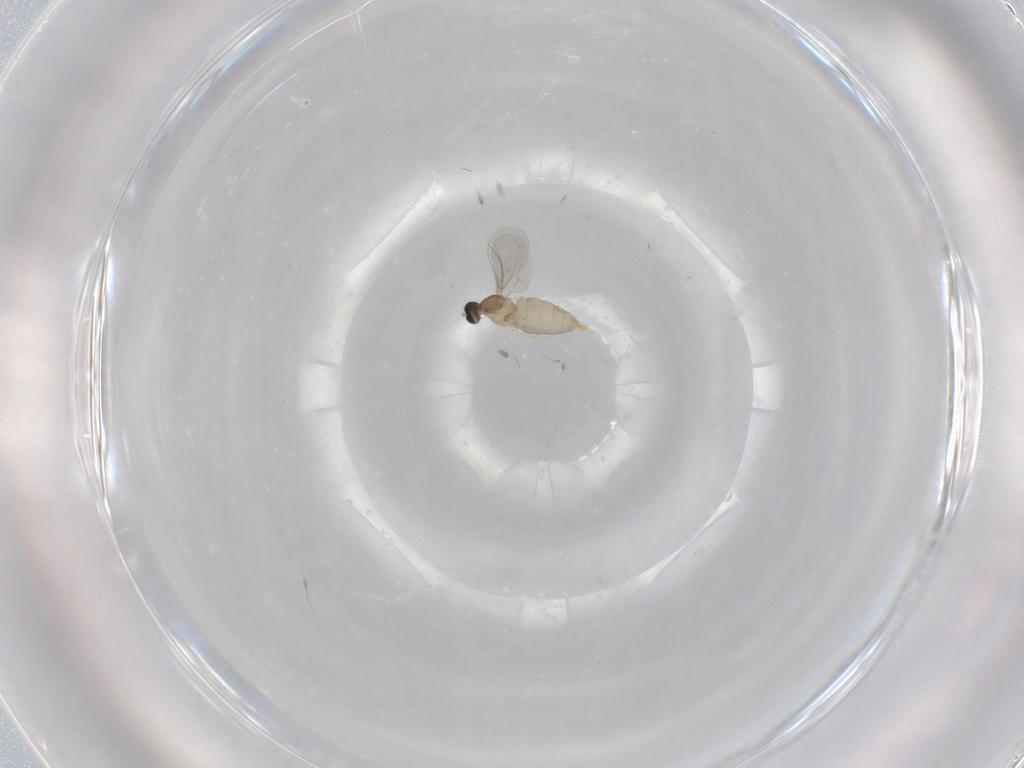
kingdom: Animalia
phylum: Arthropoda
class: Insecta
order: Diptera
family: Cecidomyiidae
